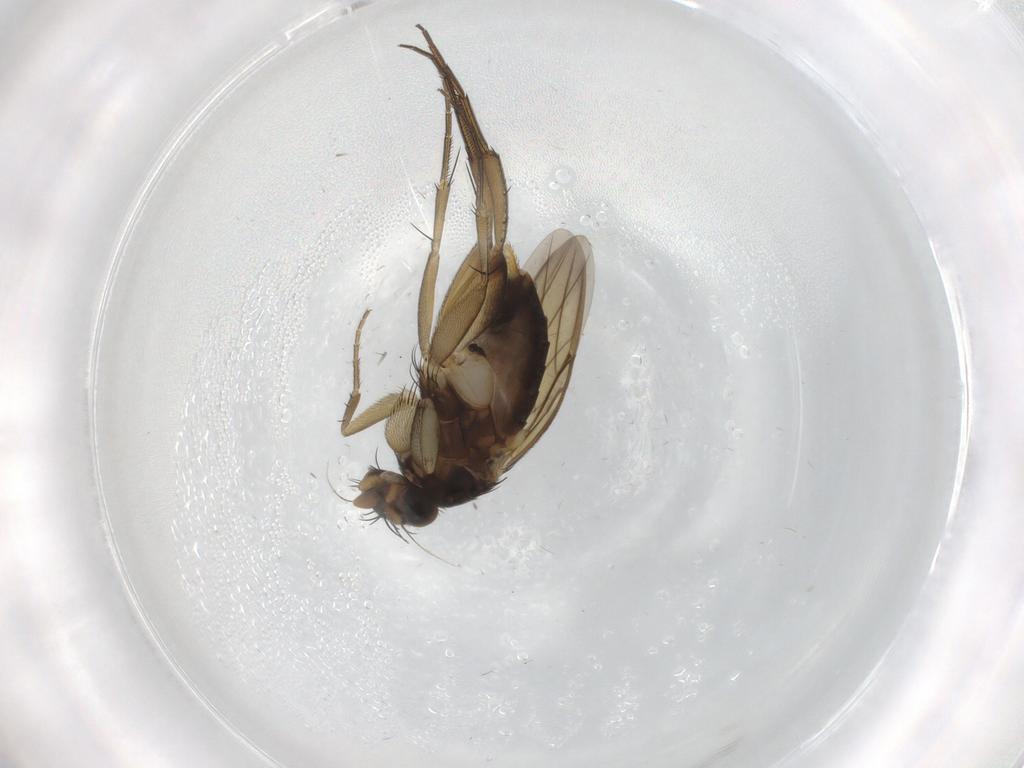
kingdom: Animalia
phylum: Arthropoda
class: Insecta
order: Diptera
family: Phoridae
